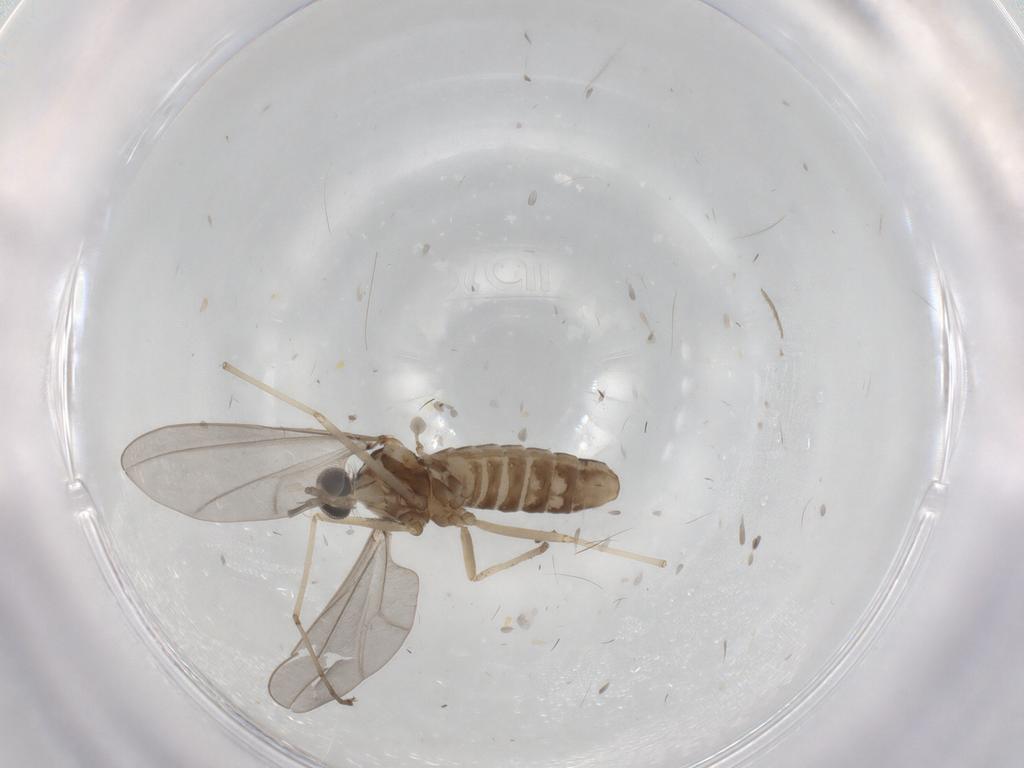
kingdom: Animalia
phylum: Arthropoda
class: Insecta
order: Diptera
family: Cecidomyiidae
